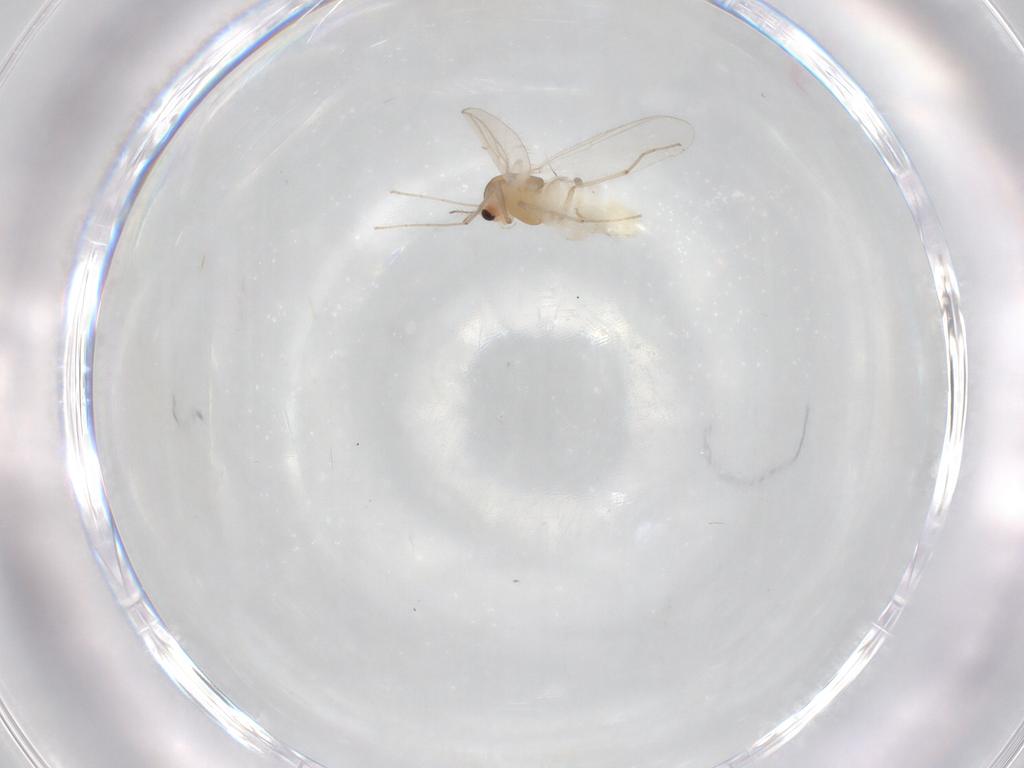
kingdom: Animalia
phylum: Arthropoda
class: Insecta
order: Diptera
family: Chironomidae
